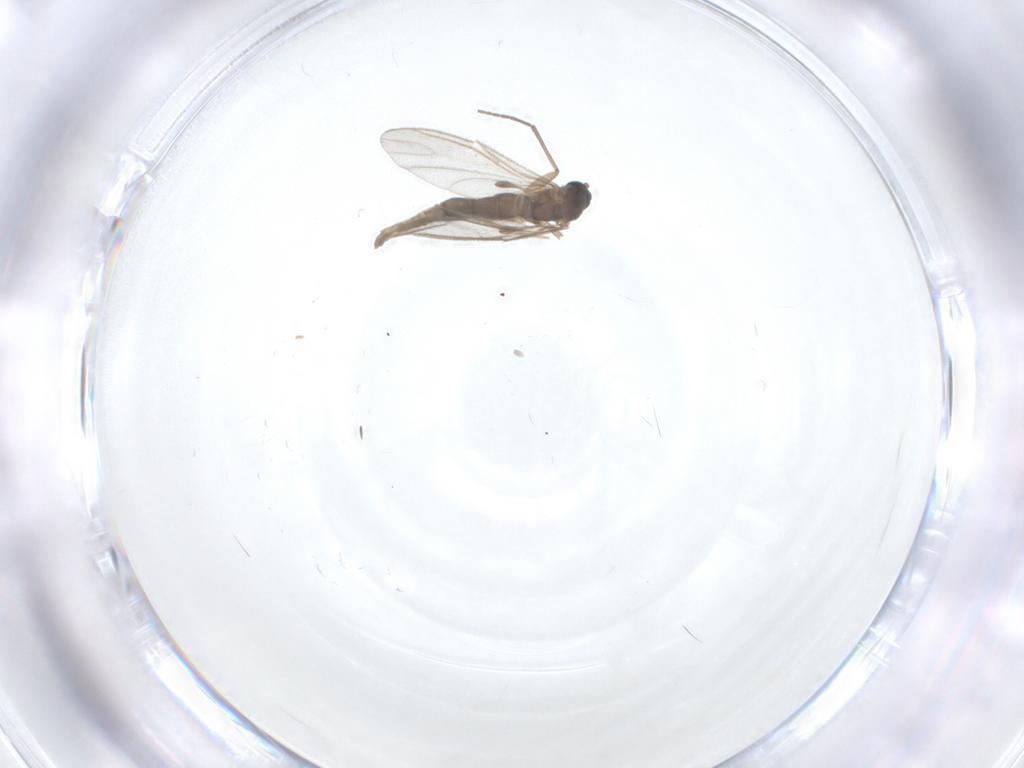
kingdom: Animalia
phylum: Arthropoda
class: Insecta
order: Diptera
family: Sciaridae
